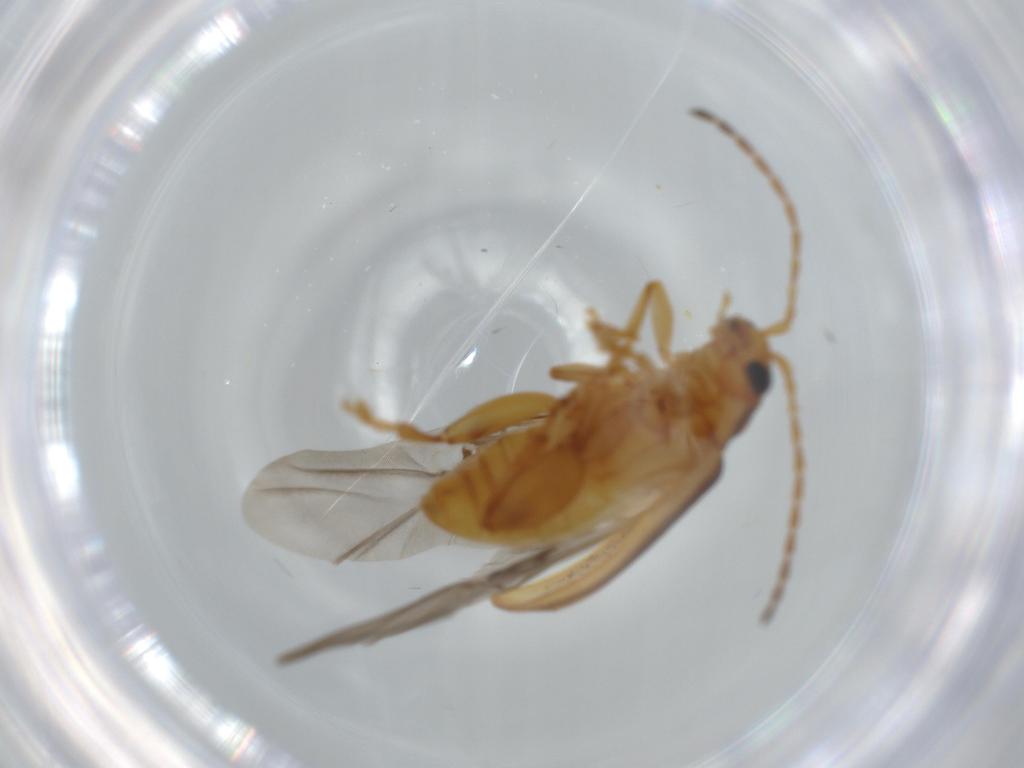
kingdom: Animalia
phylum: Arthropoda
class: Insecta
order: Coleoptera
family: Chrysomelidae
